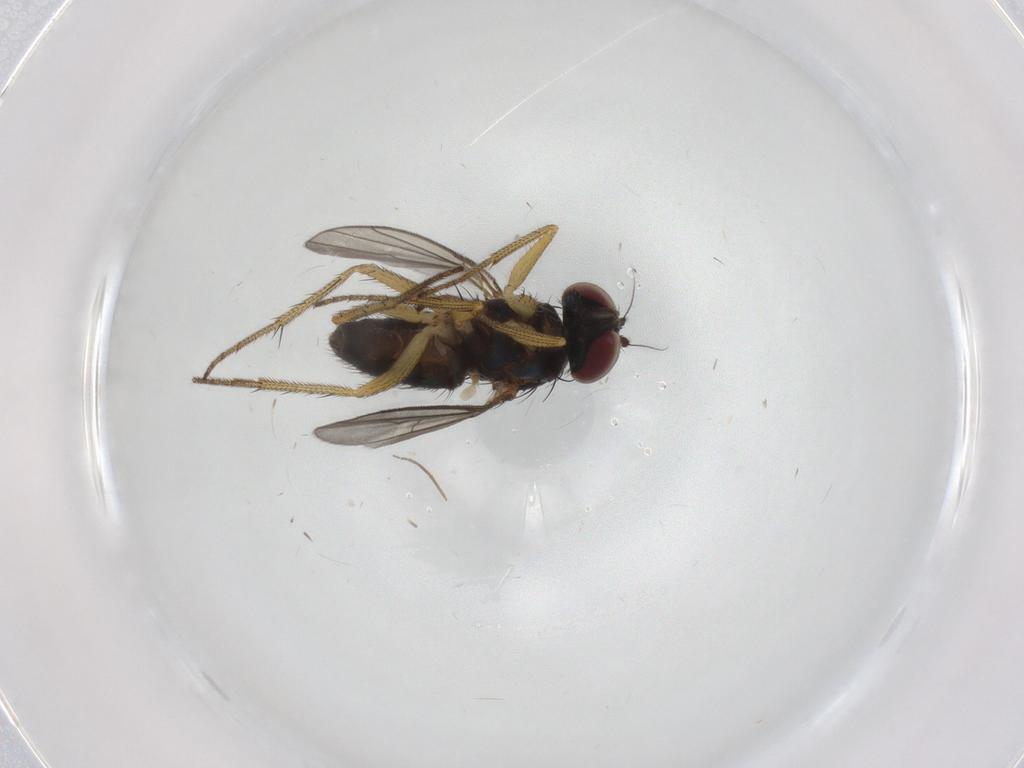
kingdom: Animalia
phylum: Arthropoda
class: Insecta
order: Diptera
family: Dolichopodidae
